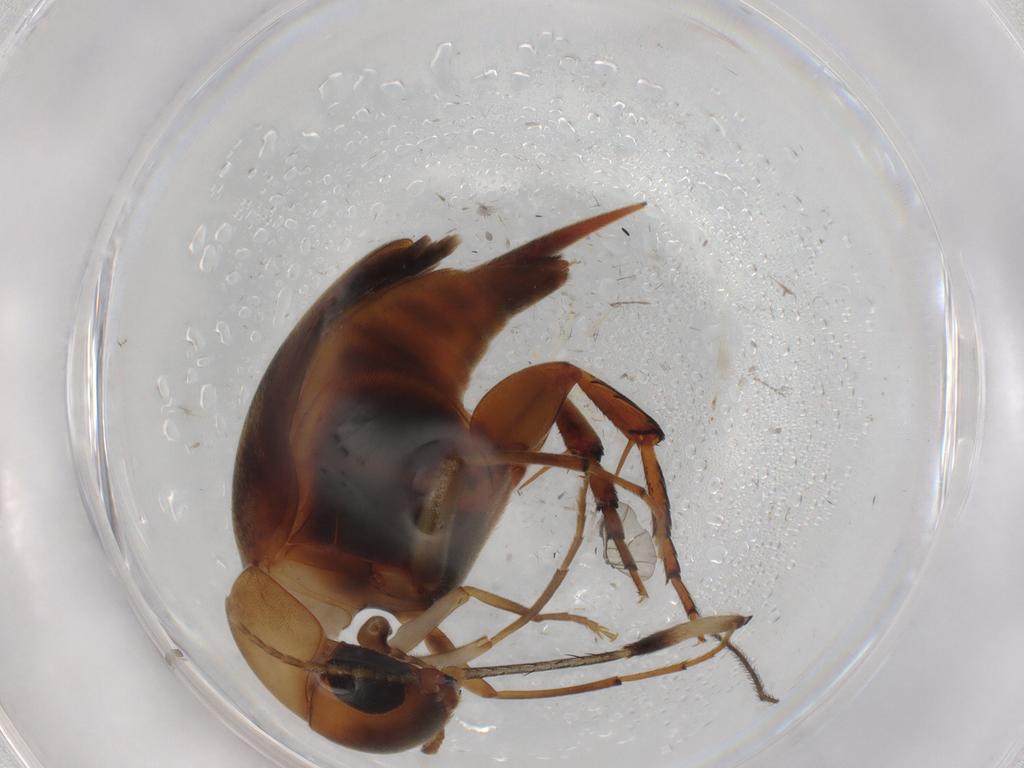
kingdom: Animalia
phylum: Arthropoda
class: Insecta
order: Coleoptera
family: Mordellidae
